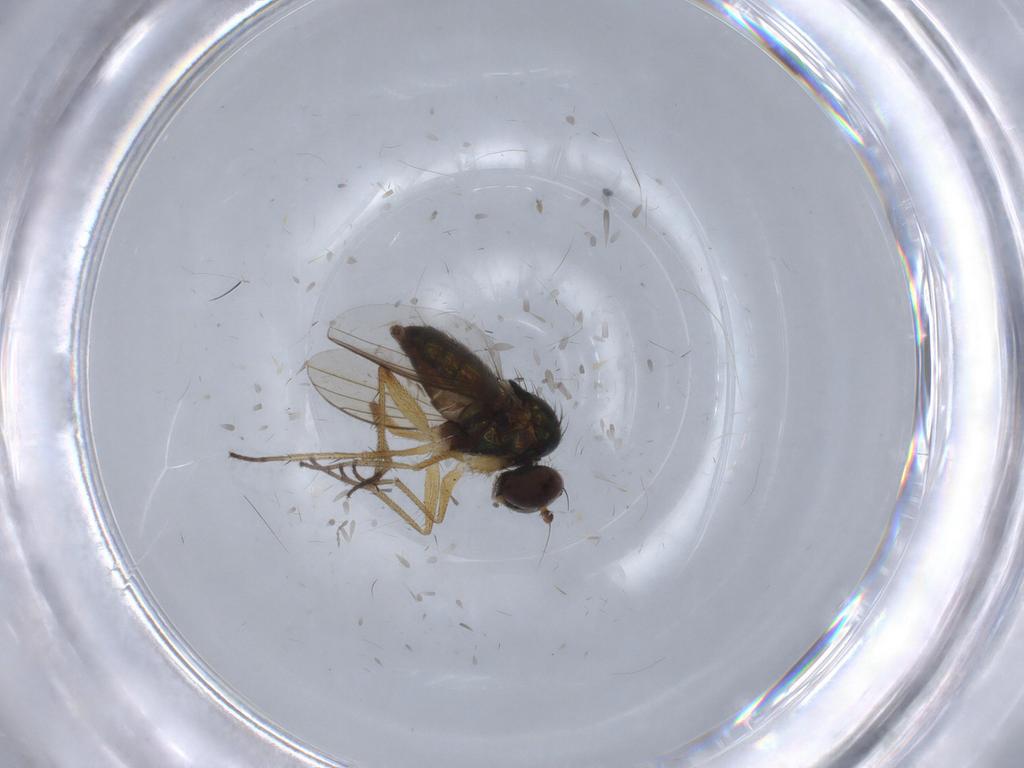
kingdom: Animalia
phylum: Arthropoda
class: Insecta
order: Diptera
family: Dolichopodidae
